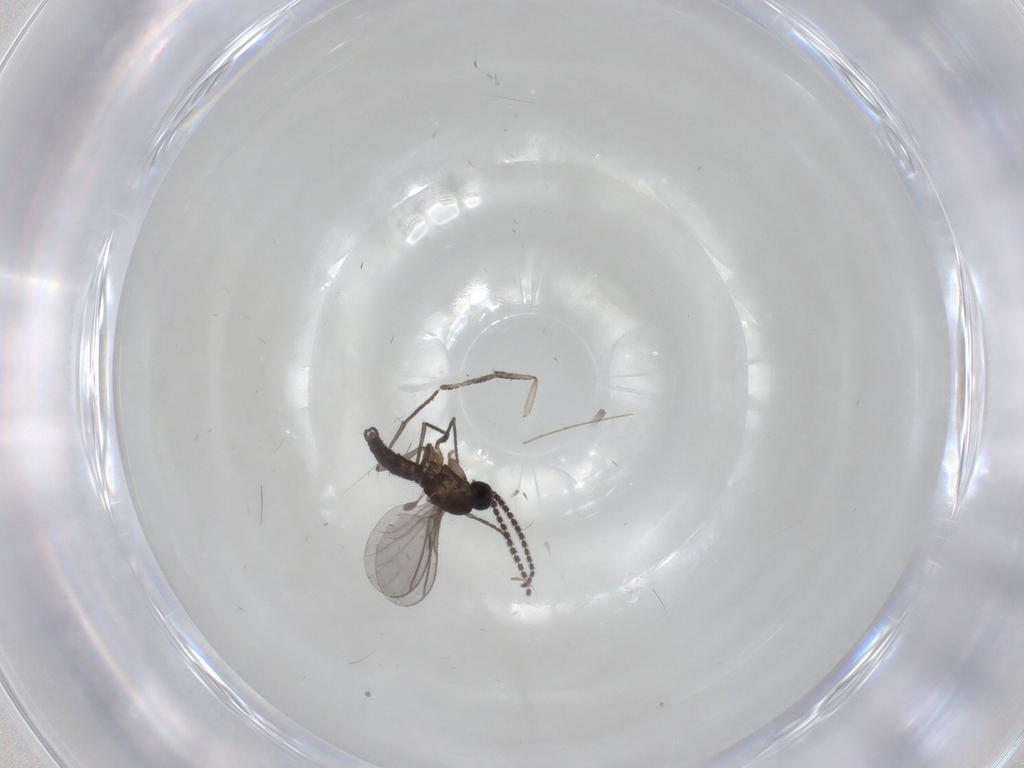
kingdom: Animalia
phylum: Arthropoda
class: Insecta
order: Diptera
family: Cecidomyiidae
